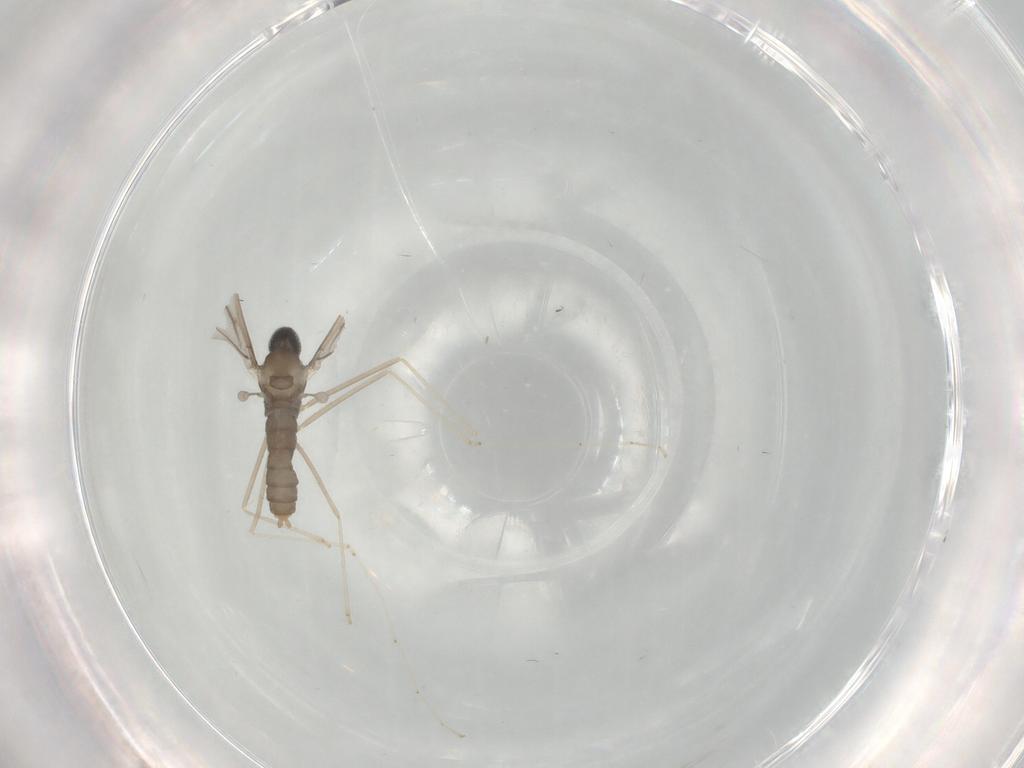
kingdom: Animalia
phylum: Arthropoda
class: Insecta
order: Diptera
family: Cecidomyiidae
